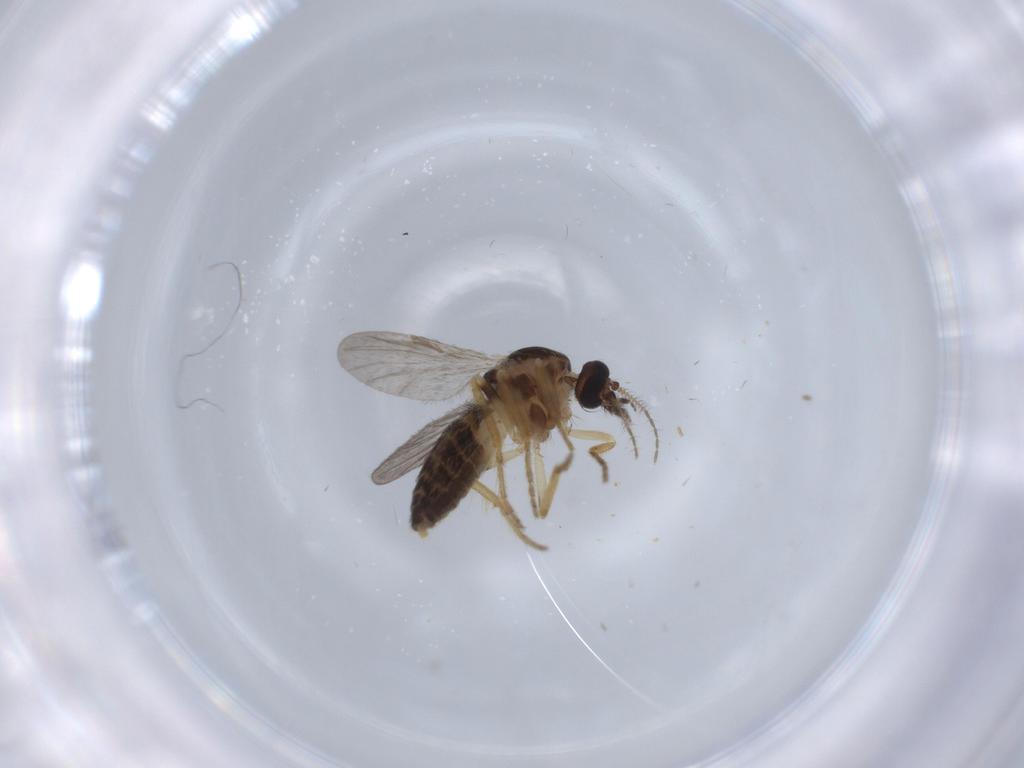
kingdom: Animalia
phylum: Arthropoda
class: Insecta
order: Diptera
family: Ceratopogonidae
